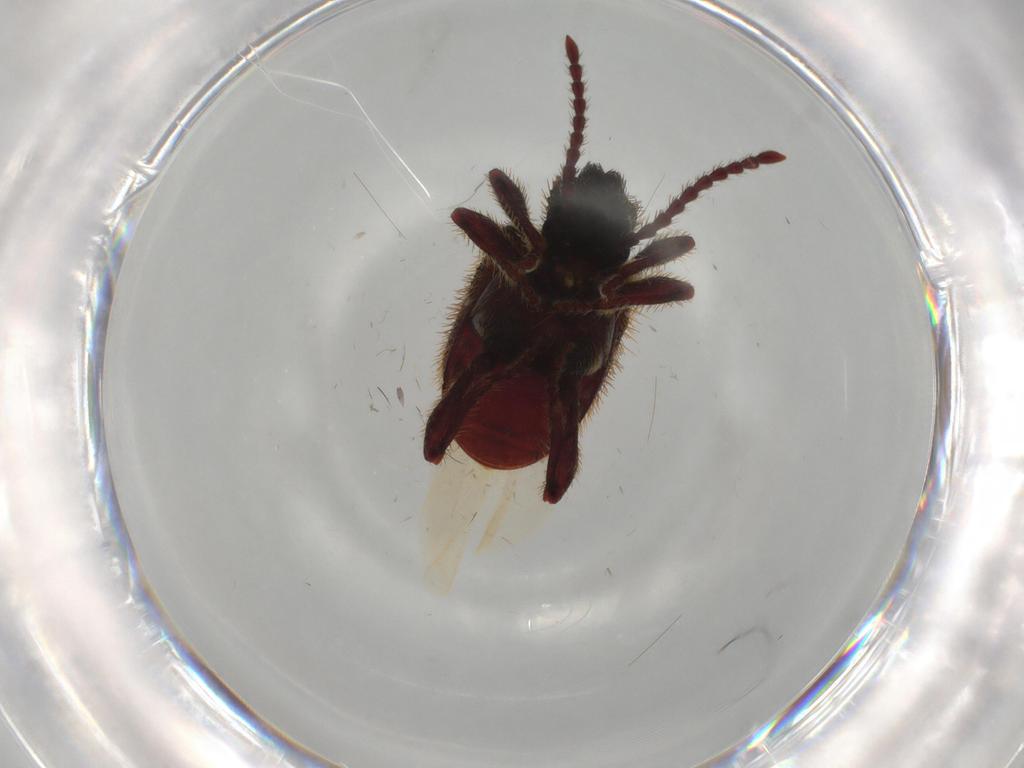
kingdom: Animalia
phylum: Arthropoda
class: Insecta
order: Coleoptera
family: Ptinidae
